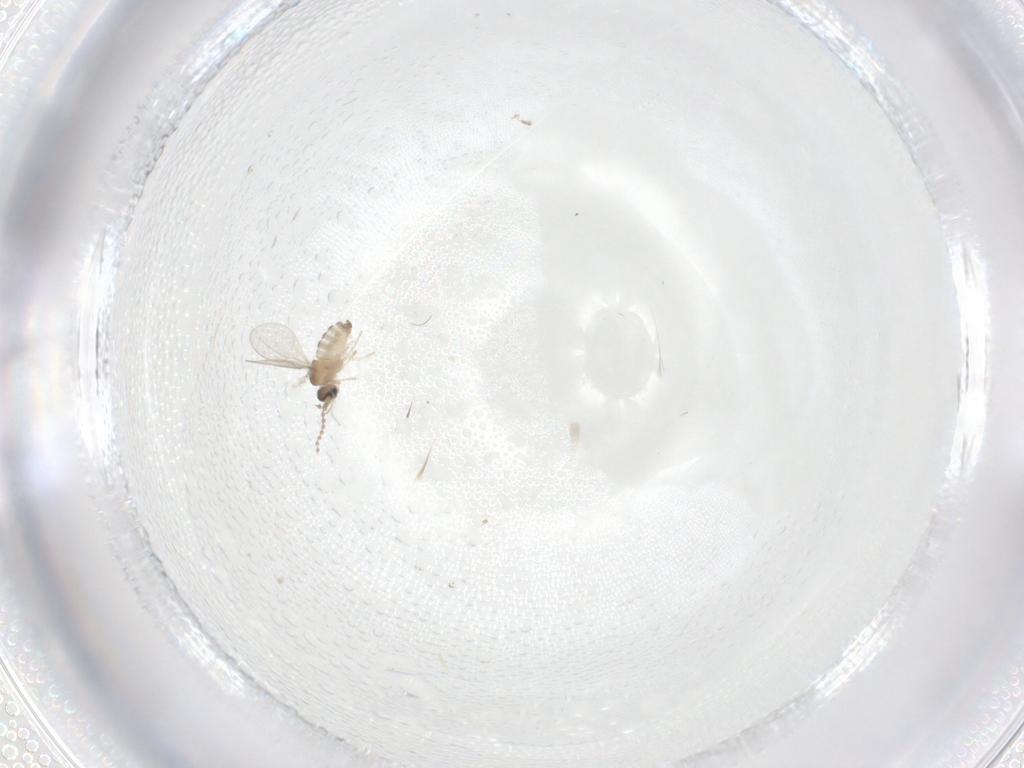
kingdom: Animalia
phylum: Arthropoda
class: Insecta
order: Diptera
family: Cecidomyiidae
